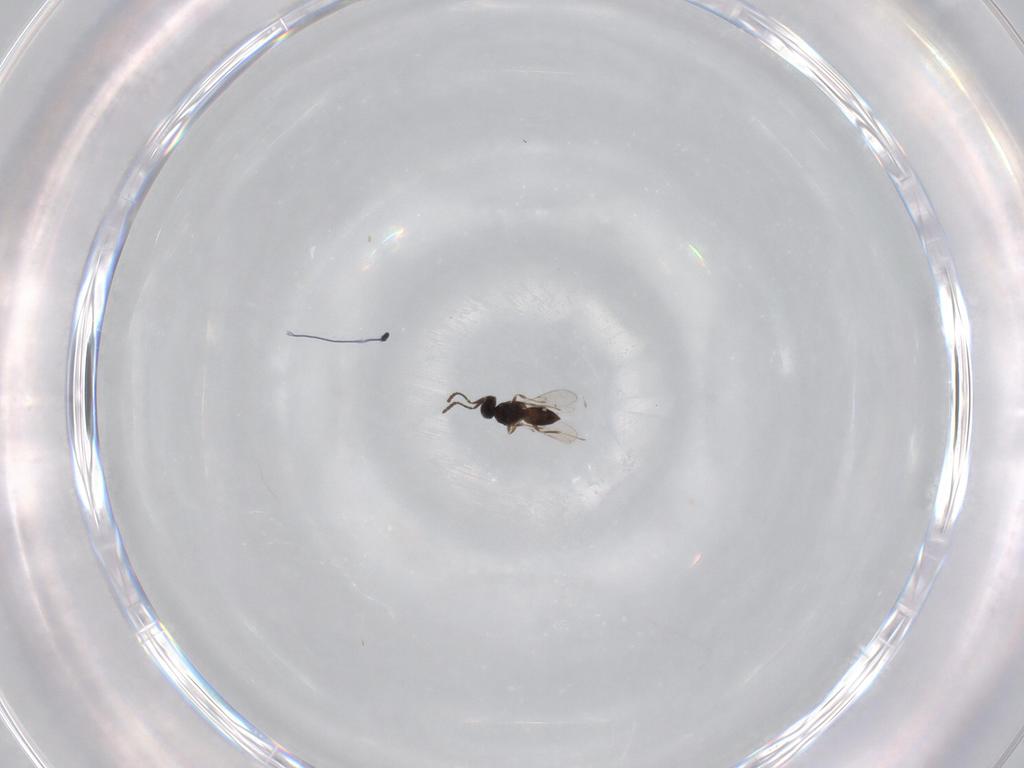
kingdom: Animalia
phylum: Arthropoda
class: Insecta
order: Hymenoptera
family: Scelionidae
